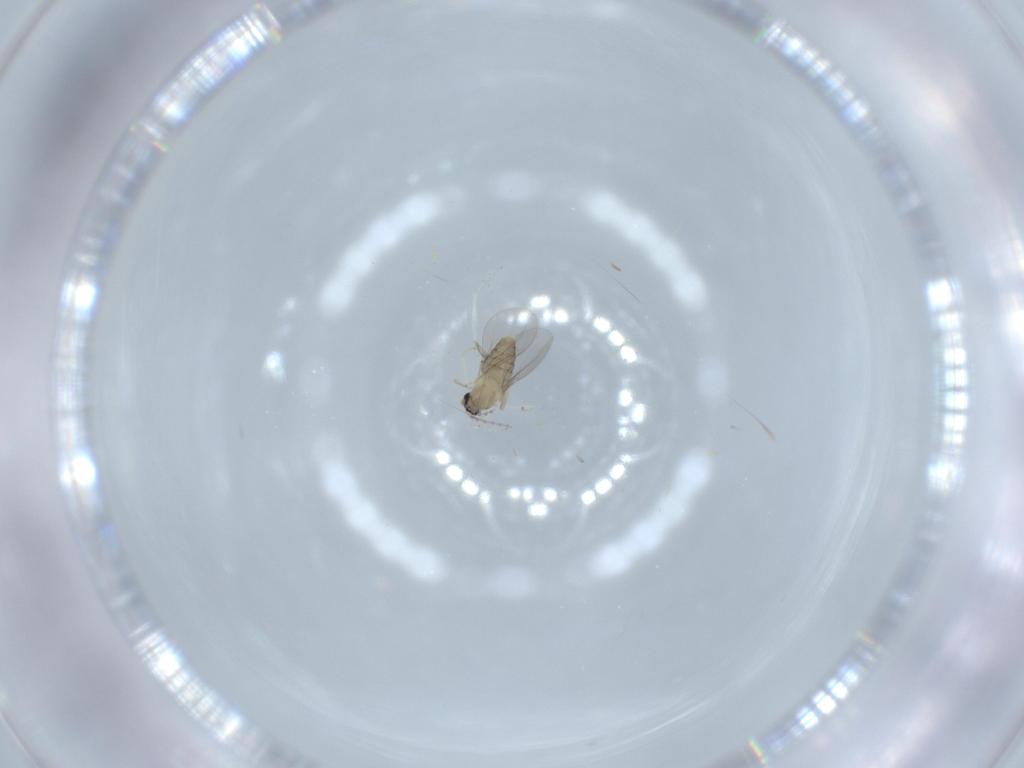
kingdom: Animalia
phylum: Arthropoda
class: Insecta
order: Diptera
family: Cecidomyiidae
